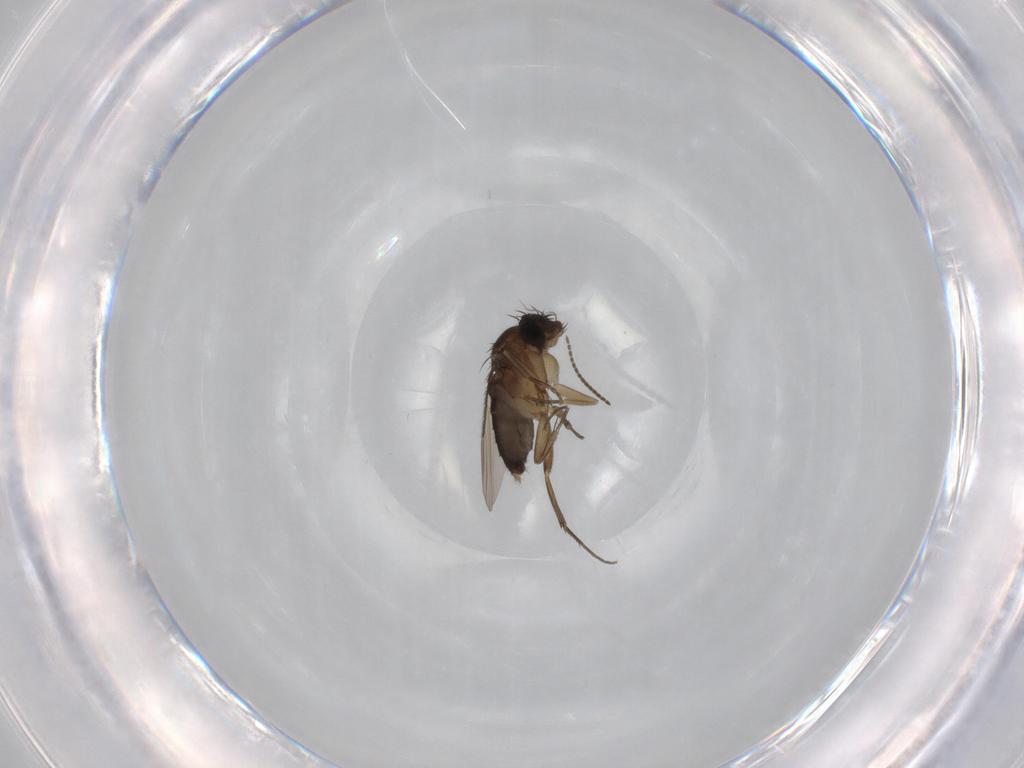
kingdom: Animalia
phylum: Arthropoda
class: Insecta
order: Diptera
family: Phoridae
